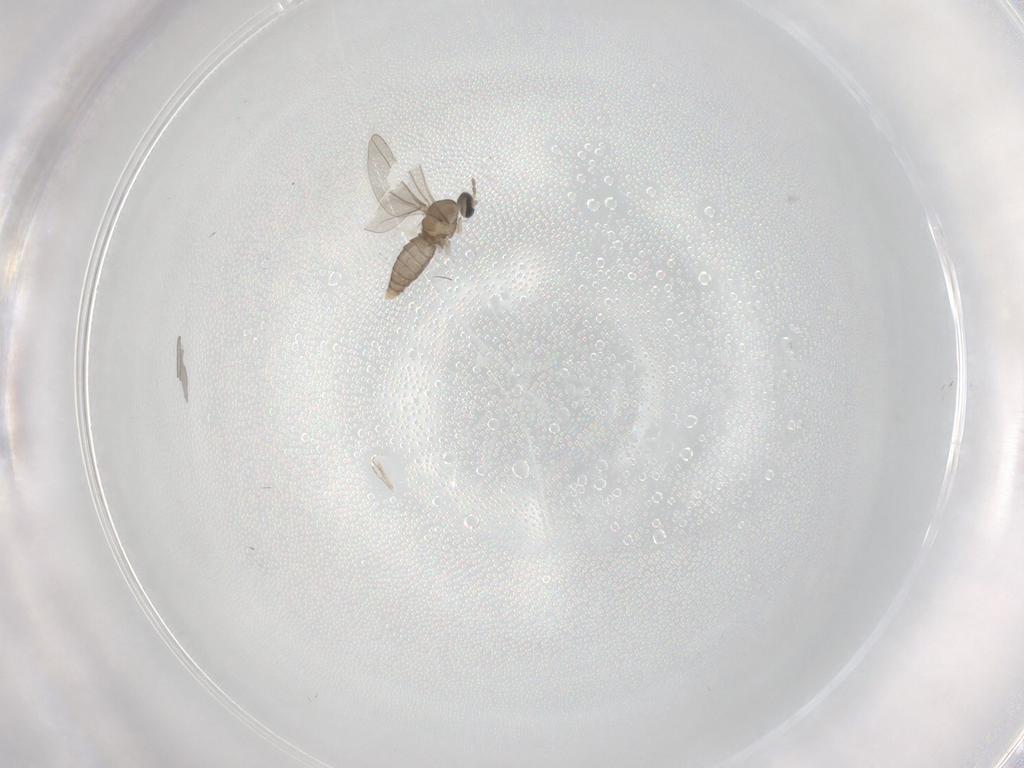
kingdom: Animalia
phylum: Arthropoda
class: Insecta
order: Diptera
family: Cecidomyiidae
